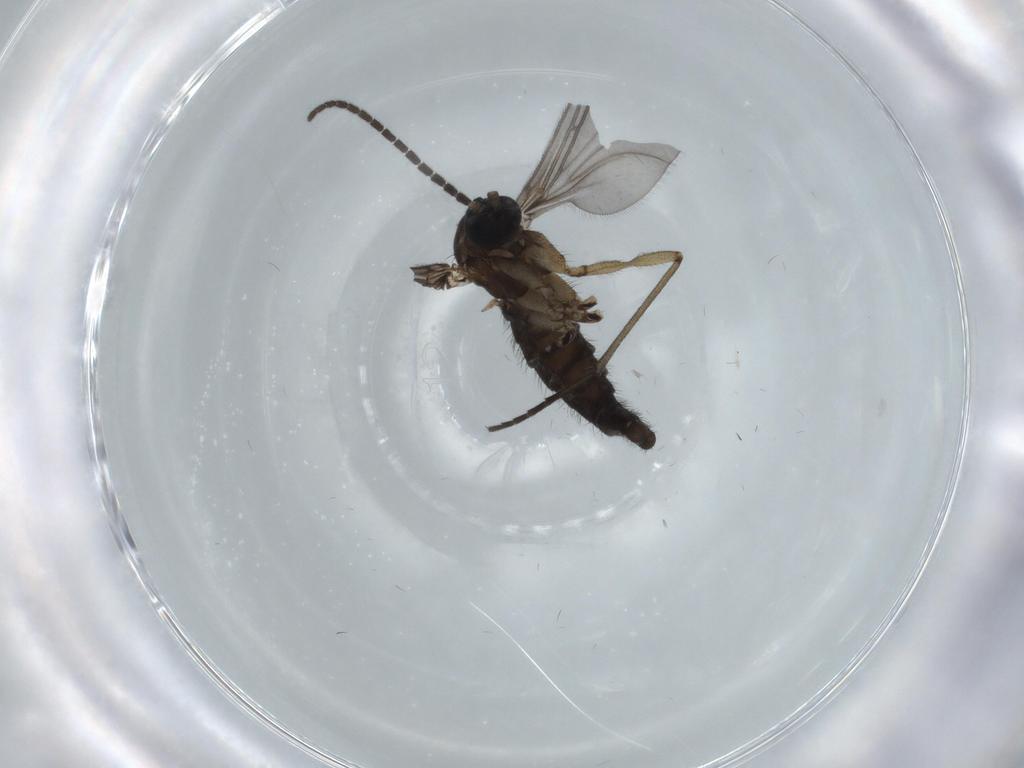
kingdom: Animalia
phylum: Arthropoda
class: Insecta
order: Diptera
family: Sciaridae
